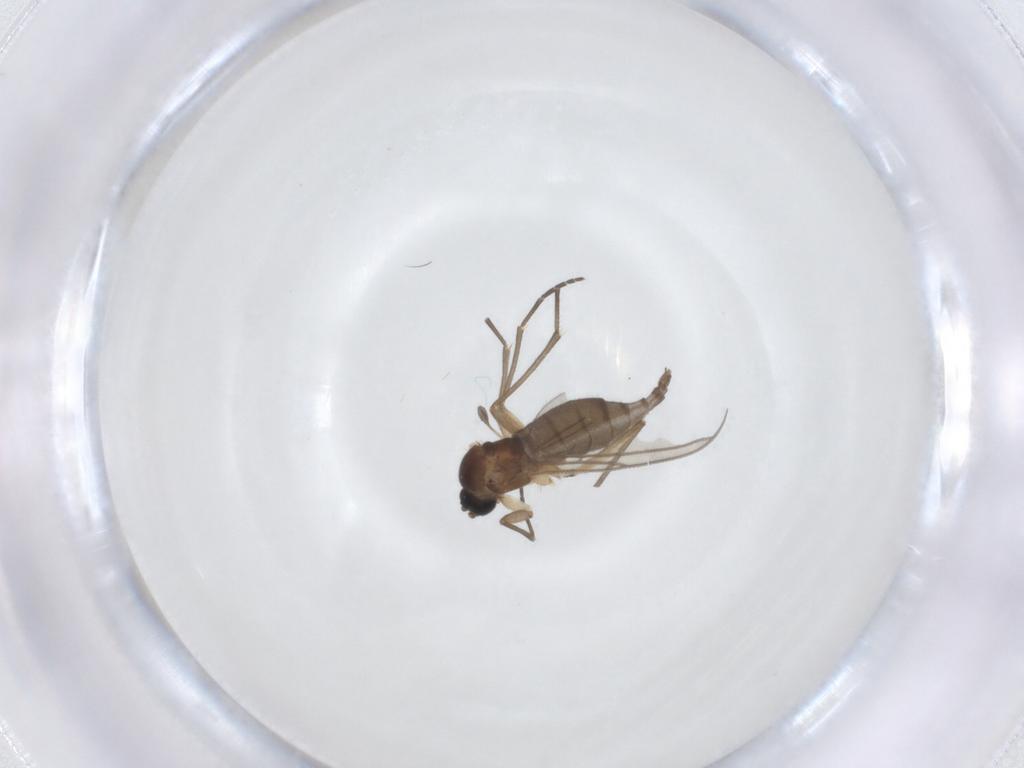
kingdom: Animalia
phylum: Arthropoda
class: Insecta
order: Diptera
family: Sciaridae
